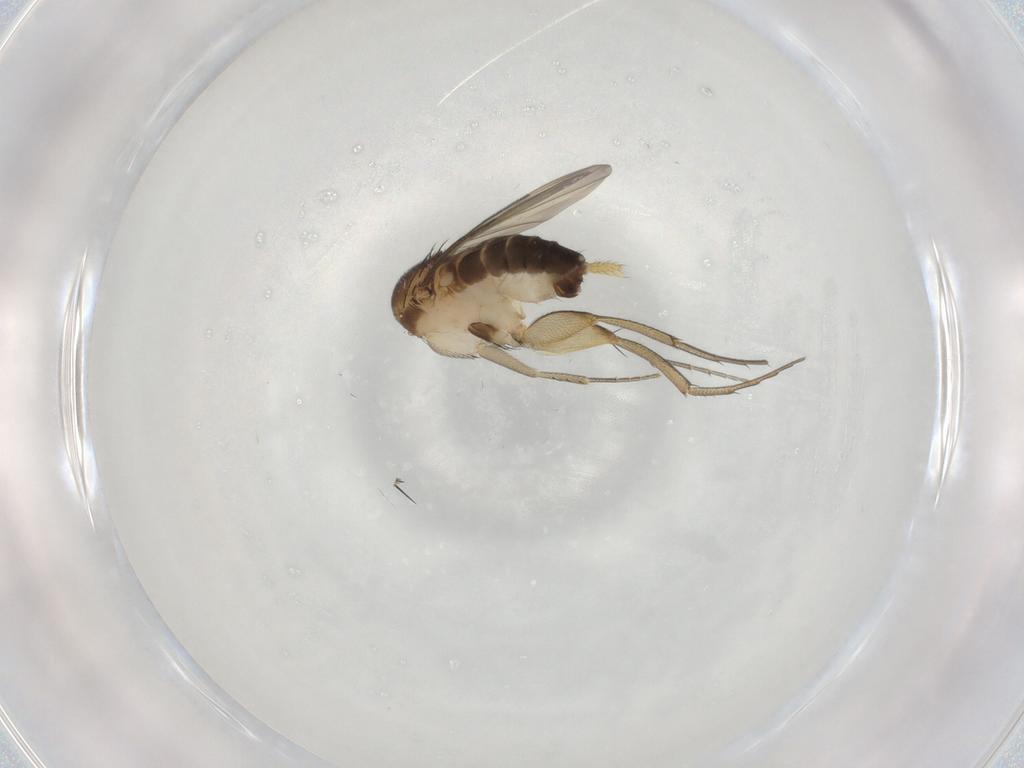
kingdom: Animalia
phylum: Arthropoda
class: Insecta
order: Diptera
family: Phoridae
